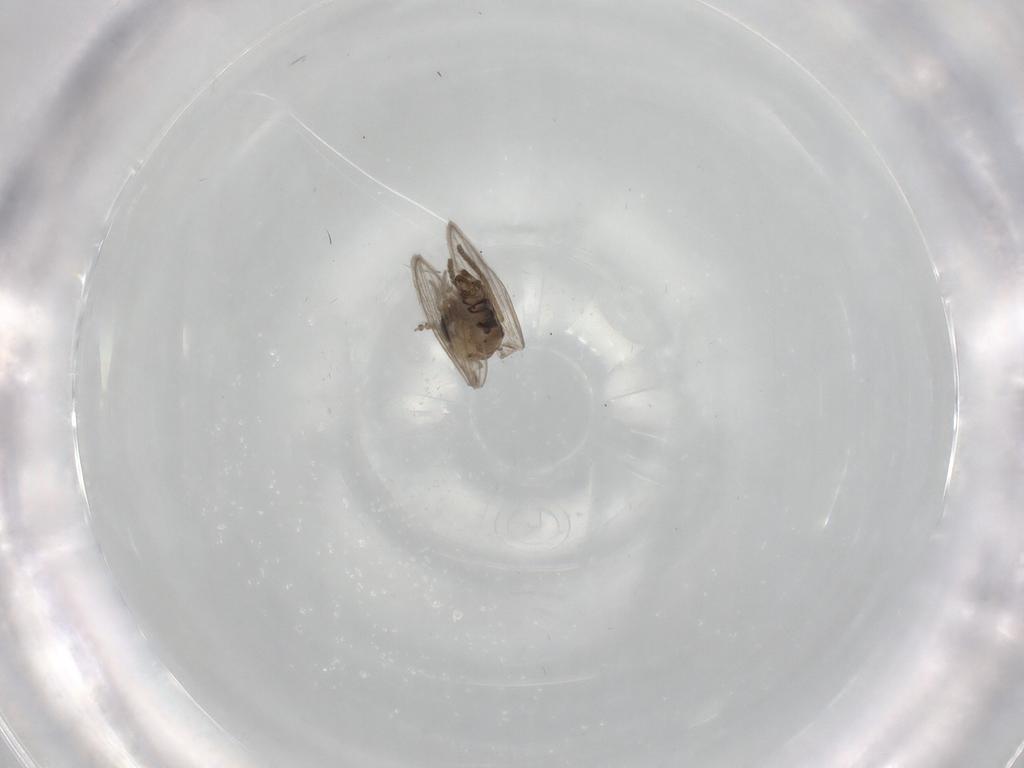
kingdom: Animalia
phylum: Arthropoda
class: Insecta
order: Diptera
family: Psychodidae
